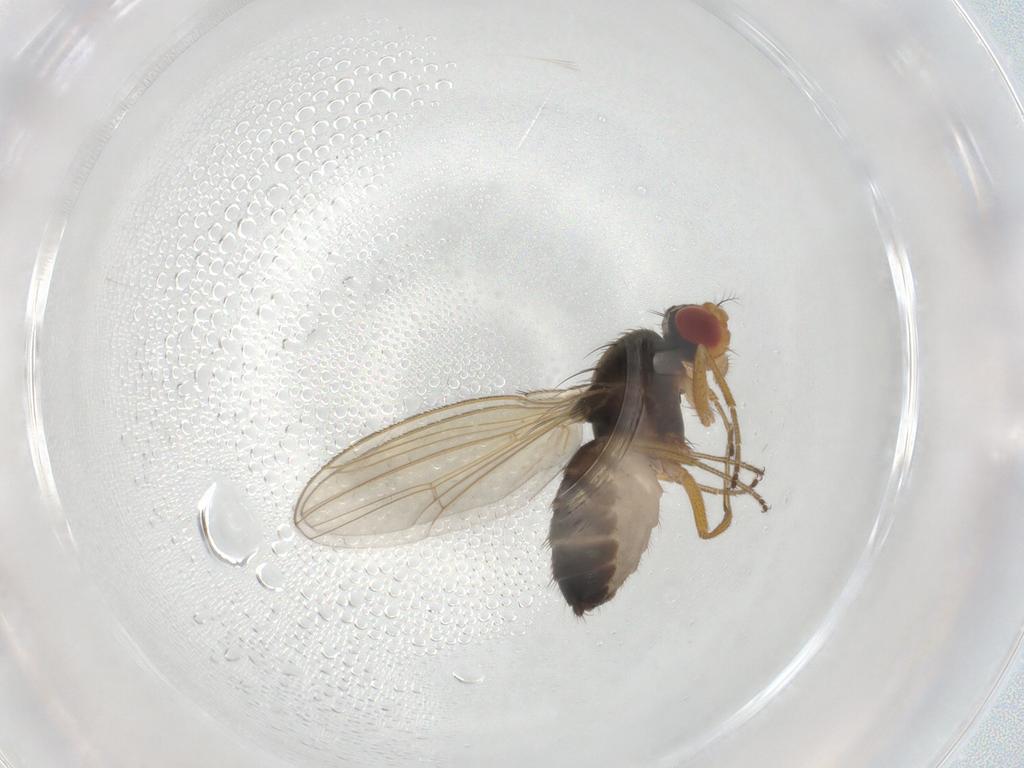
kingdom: Animalia
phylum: Arthropoda
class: Insecta
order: Diptera
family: Drosophilidae
